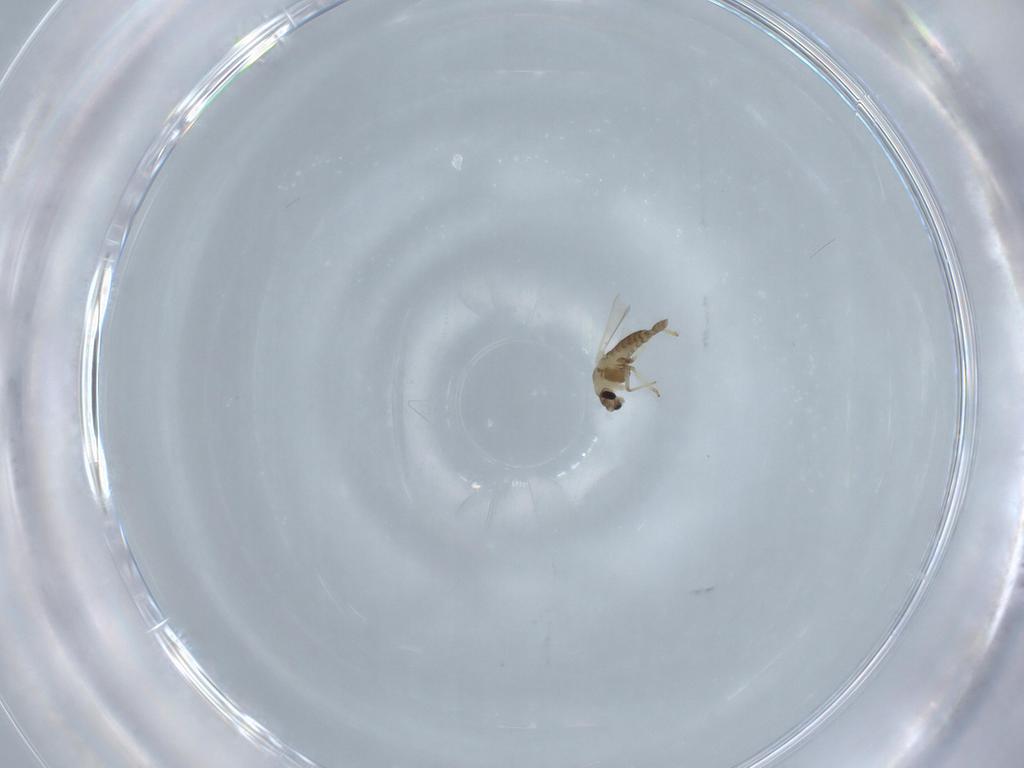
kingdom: Animalia
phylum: Arthropoda
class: Insecta
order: Diptera
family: Chironomidae
